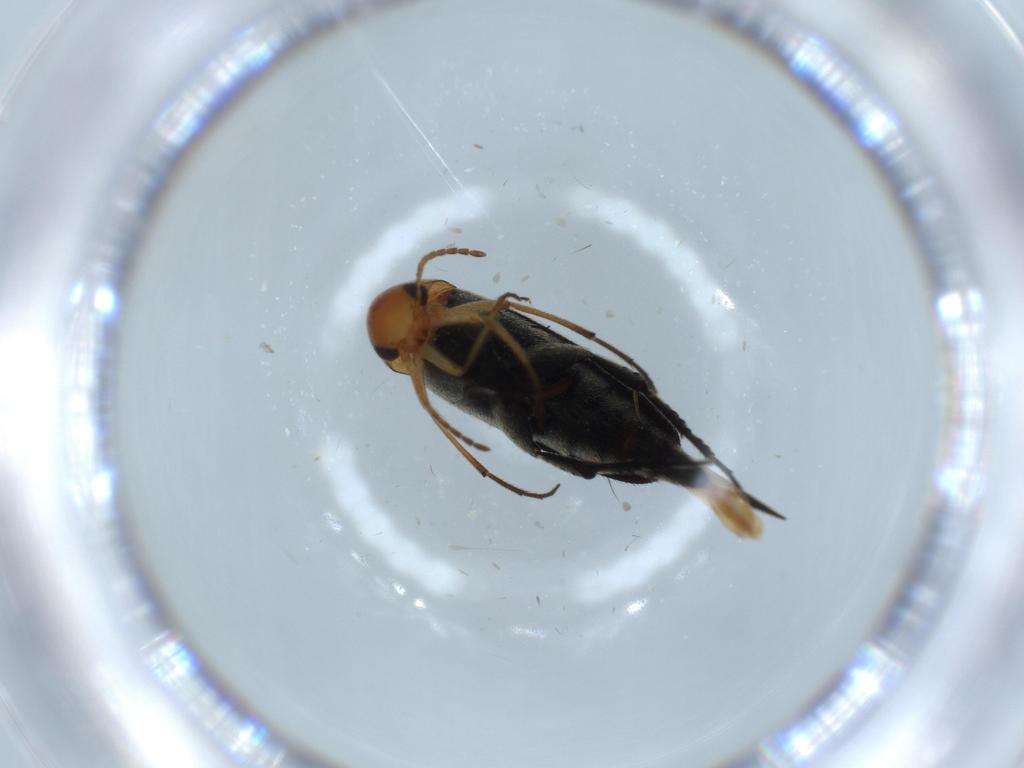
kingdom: Animalia
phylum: Arthropoda
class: Insecta
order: Coleoptera
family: Mordellidae
